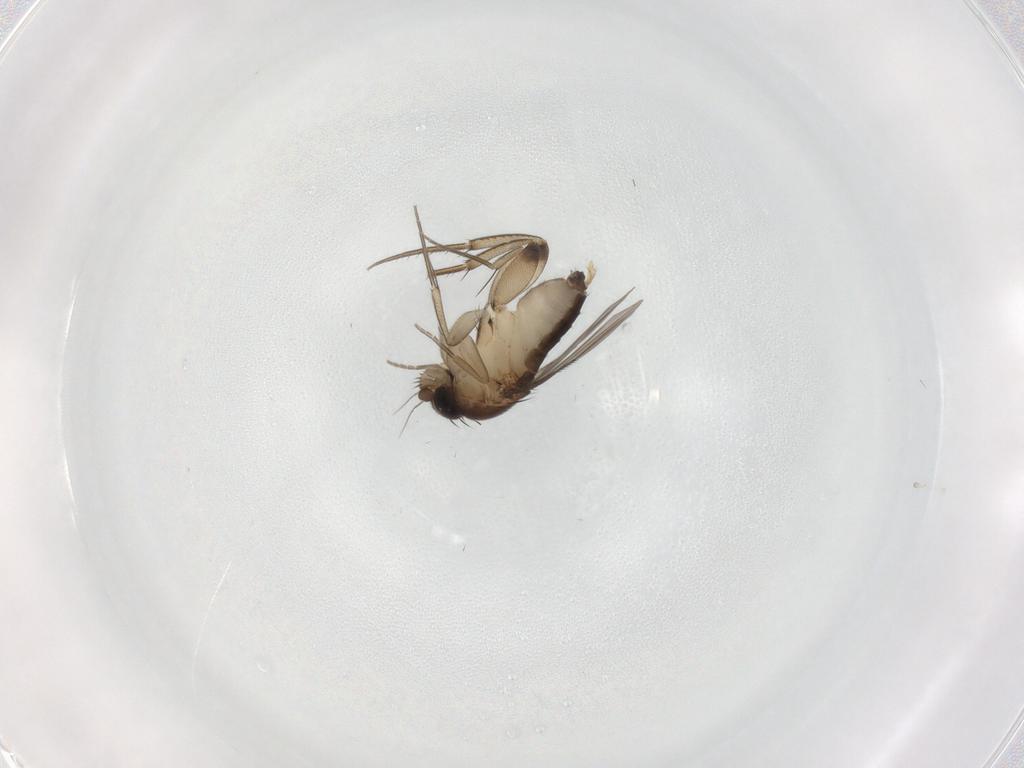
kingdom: Animalia
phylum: Arthropoda
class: Insecta
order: Diptera
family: Phoridae
